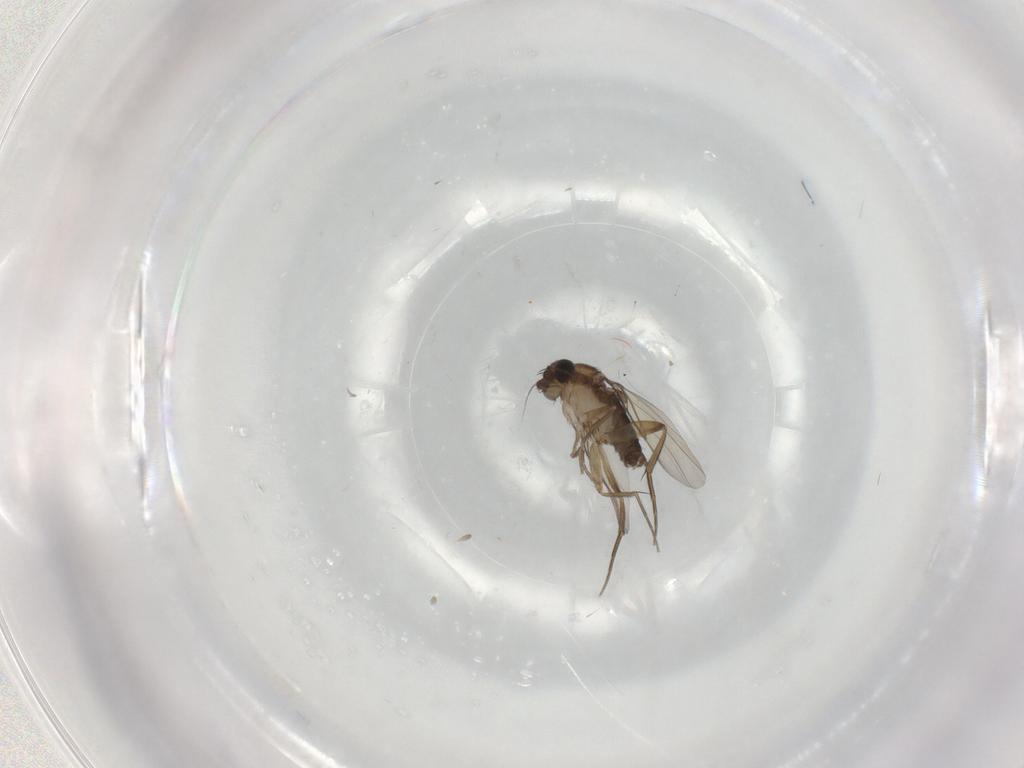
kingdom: Animalia
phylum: Arthropoda
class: Insecta
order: Diptera
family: Phoridae
